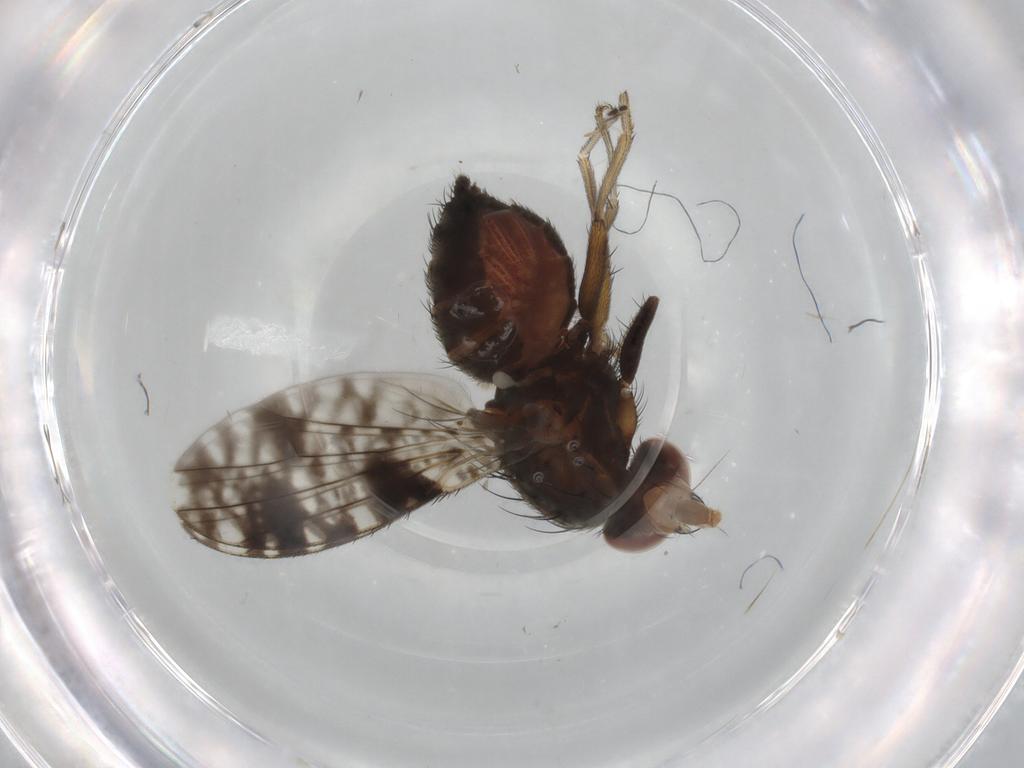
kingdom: Animalia
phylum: Arthropoda
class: Insecta
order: Diptera
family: Tephritidae
